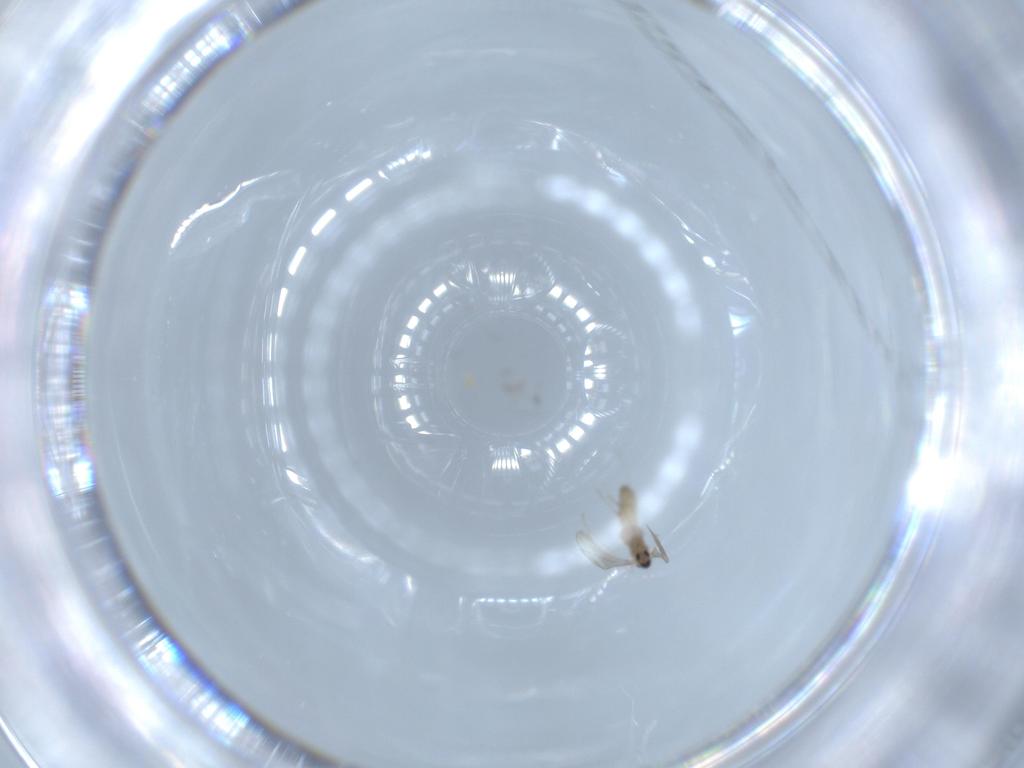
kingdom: Animalia
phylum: Arthropoda
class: Insecta
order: Diptera
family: Cecidomyiidae
